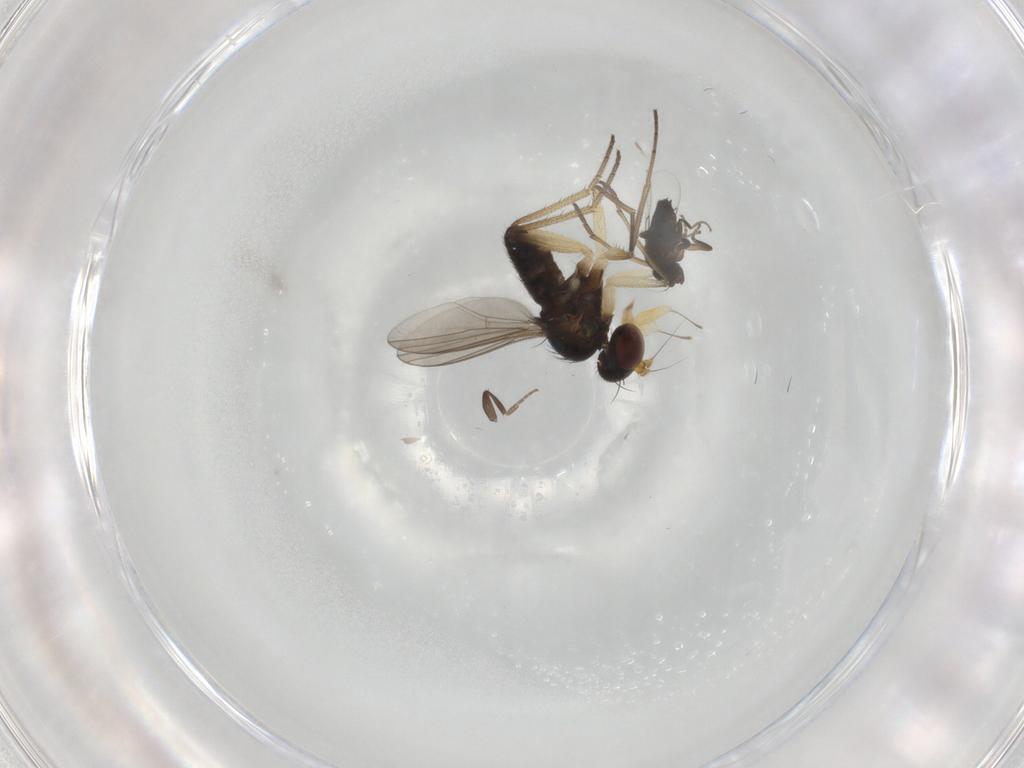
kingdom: Animalia
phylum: Arthropoda
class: Insecta
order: Diptera
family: Dolichopodidae
